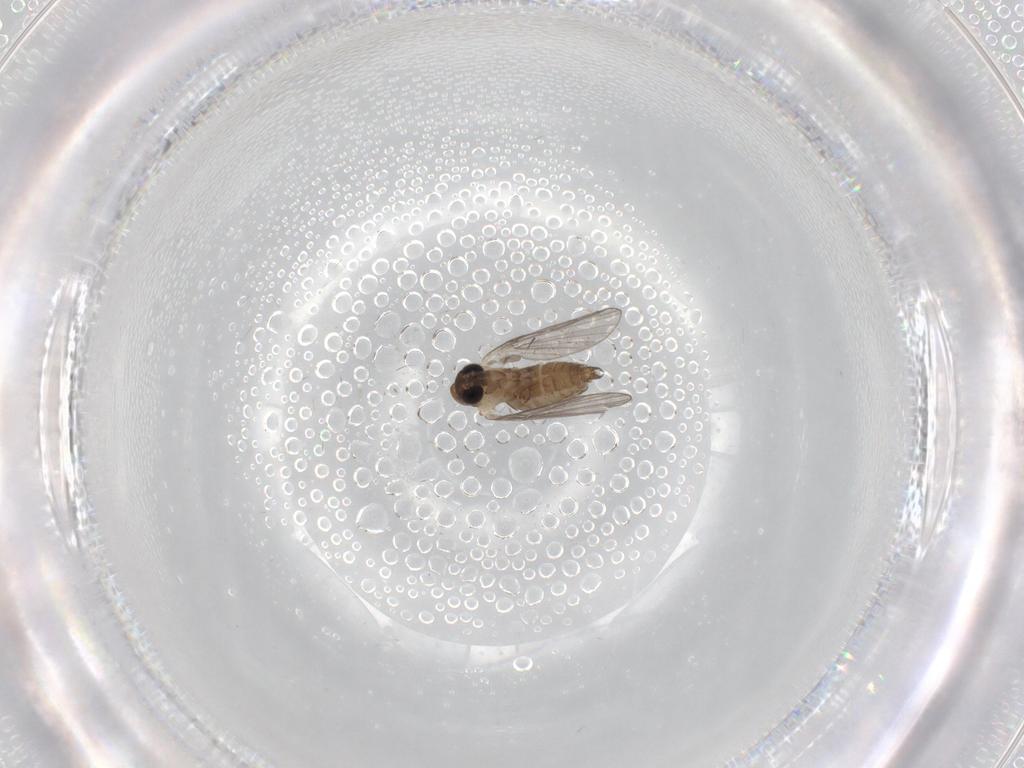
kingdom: Animalia
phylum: Arthropoda
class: Insecta
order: Diptera
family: Cecidomyiidae
